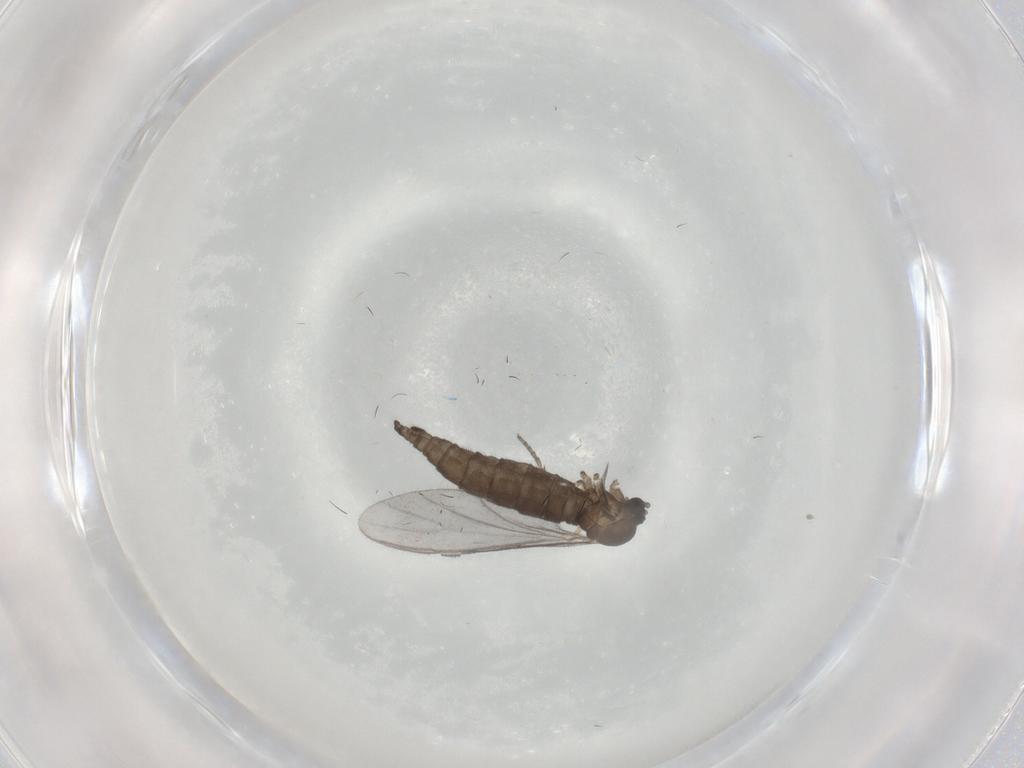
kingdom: Animalia
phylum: Arthropoda
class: Insecta
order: Diptera
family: Sciaridae
